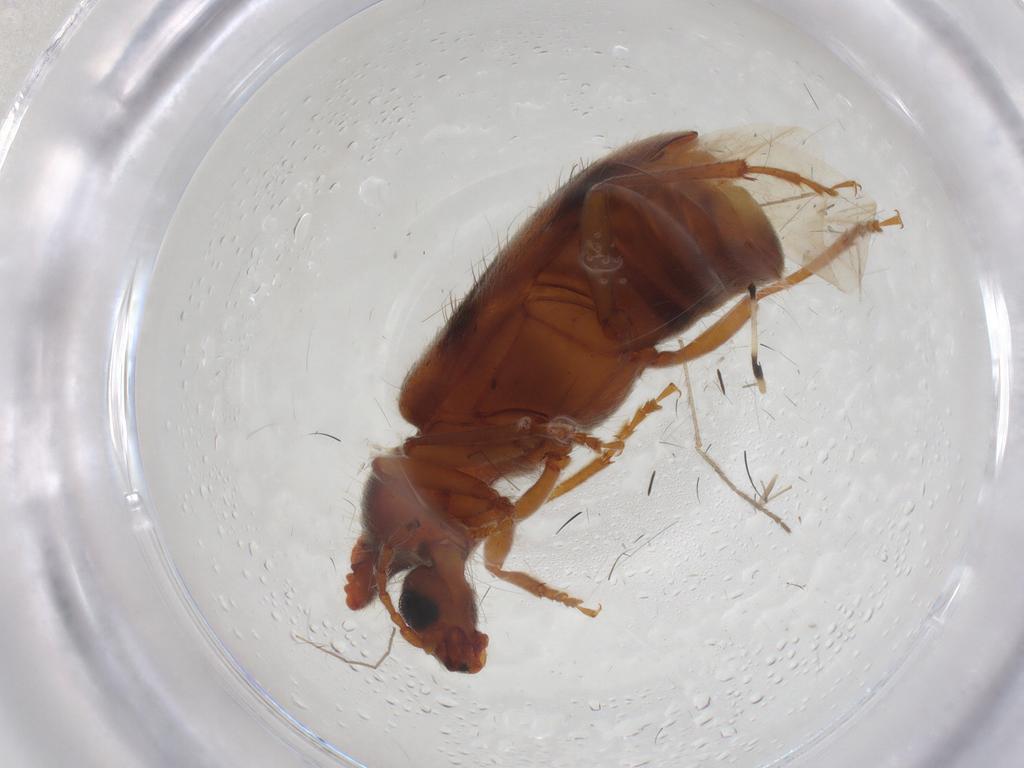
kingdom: Animalia
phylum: Arthropoda
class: Insecta
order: Coleoptera
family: Anthicidae
